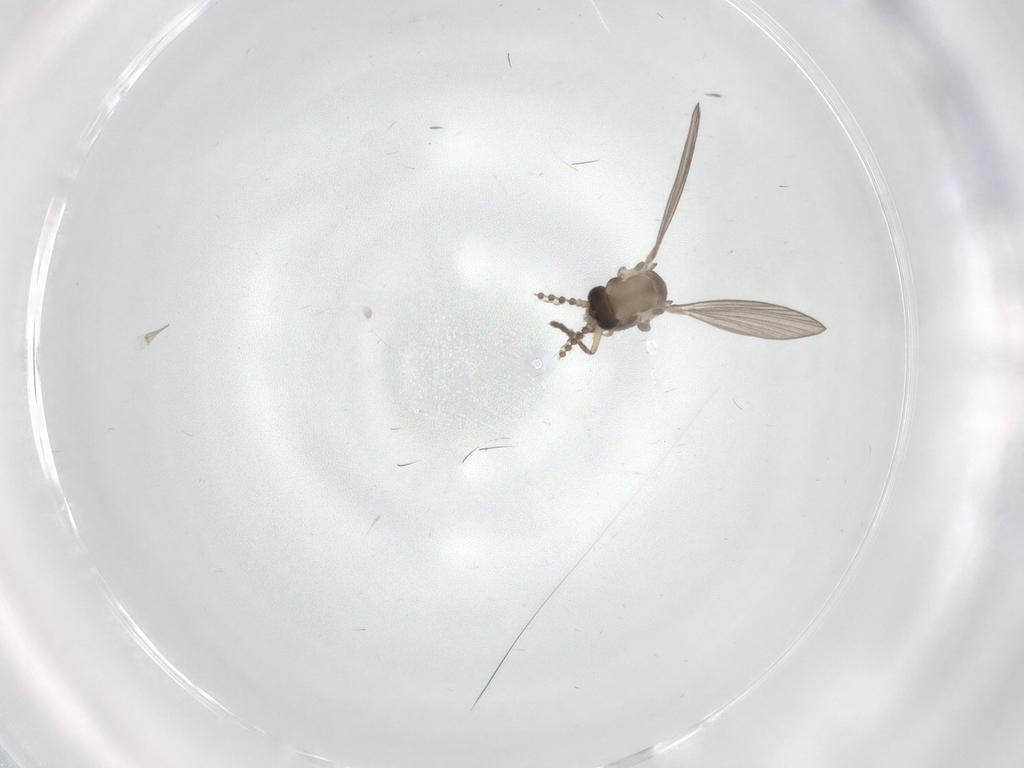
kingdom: Animalia
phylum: Arthropoda
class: Insecta
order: Diptera
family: Psychodidae
